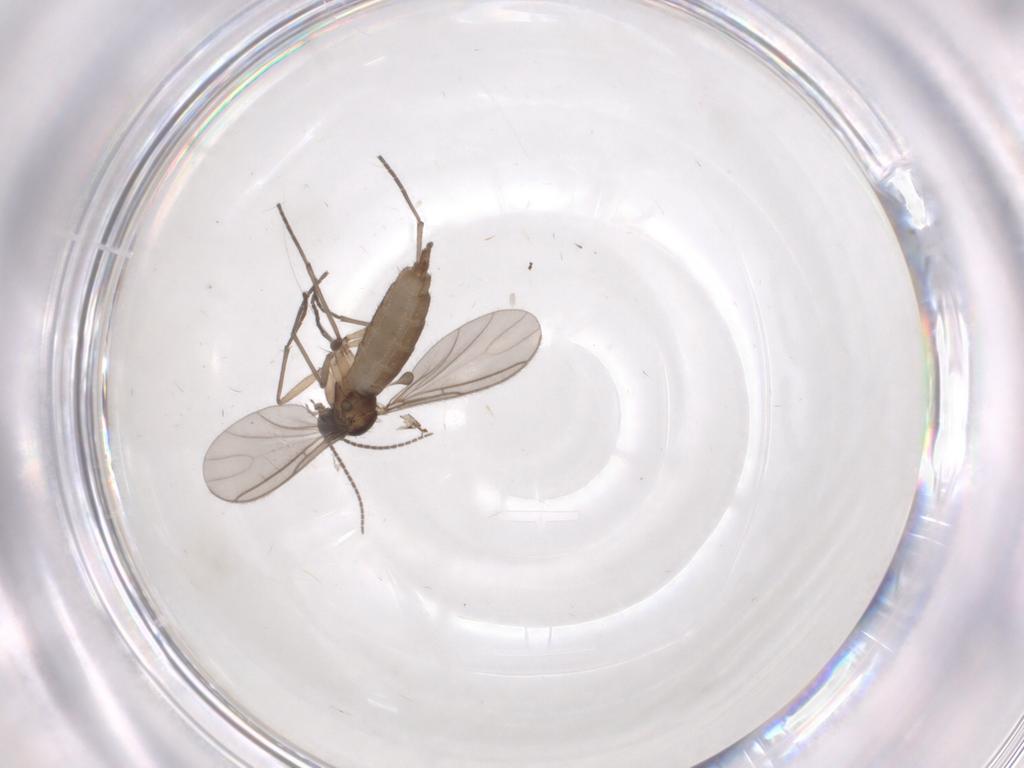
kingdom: Animalia
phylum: Arthropoda
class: Insecta
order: Diptera
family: Sciaridae
